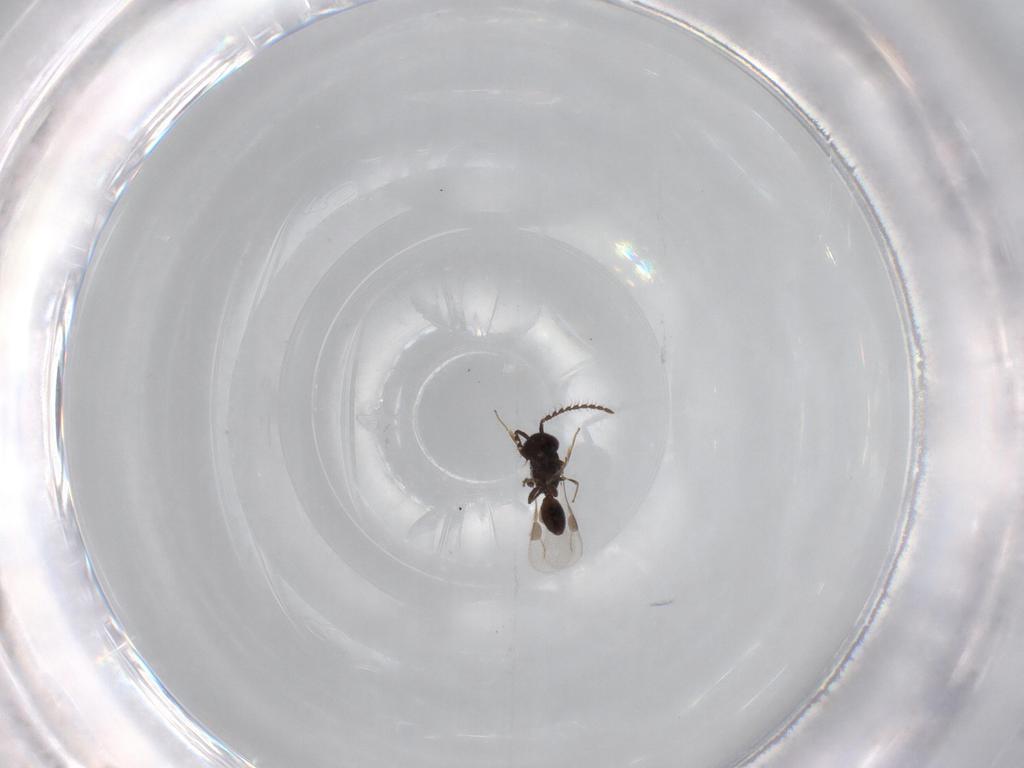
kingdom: Animalia
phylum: Arthropoda
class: Insecta
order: Hymenoptera
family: Megaspilidae
